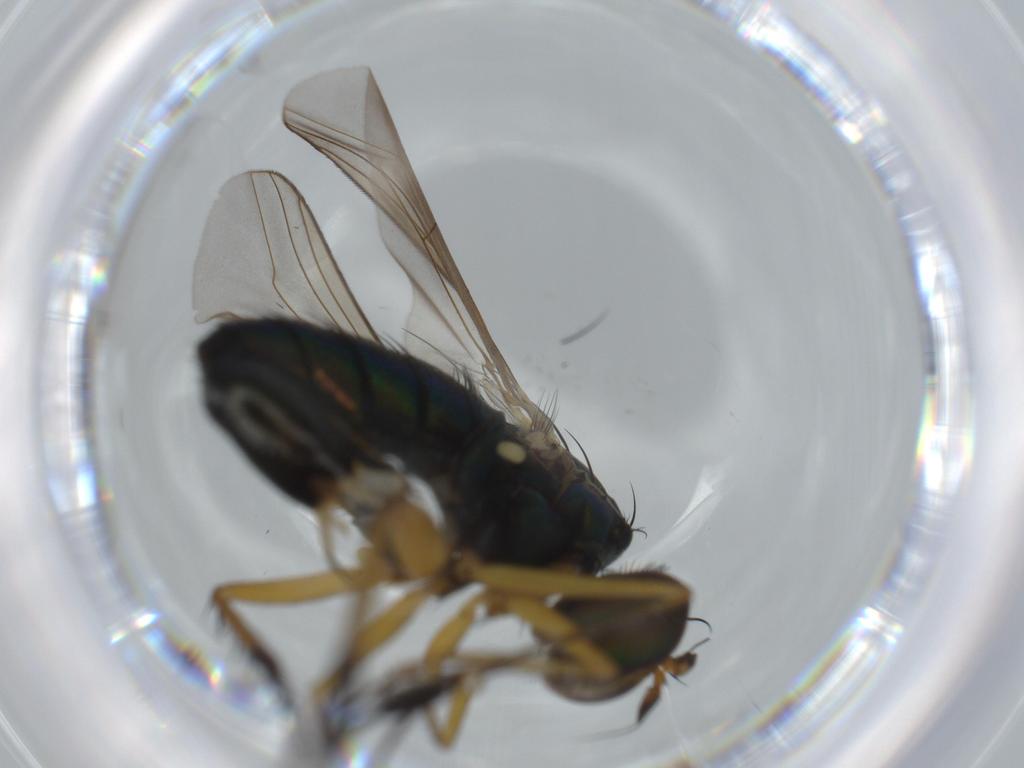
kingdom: Animalia
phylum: Arthropoda
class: Insecta
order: Diptera
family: Dolichopodidae
